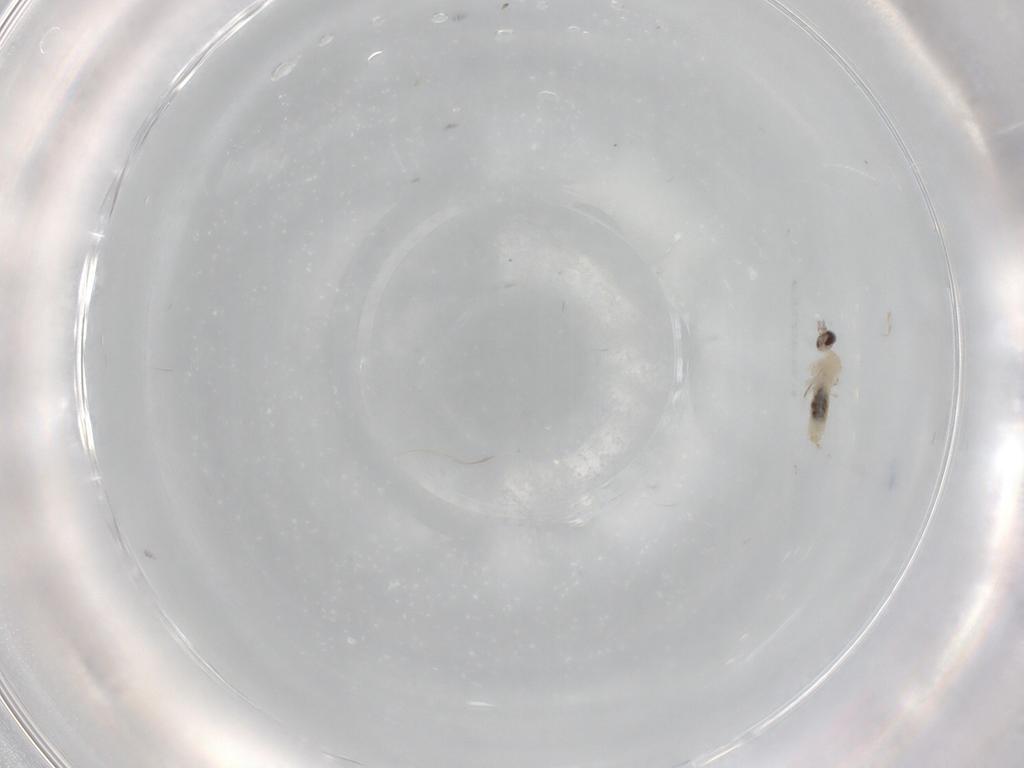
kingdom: Animalia
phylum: Arthropoda
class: Insecta
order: Diptera
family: Cecidomyiidae
